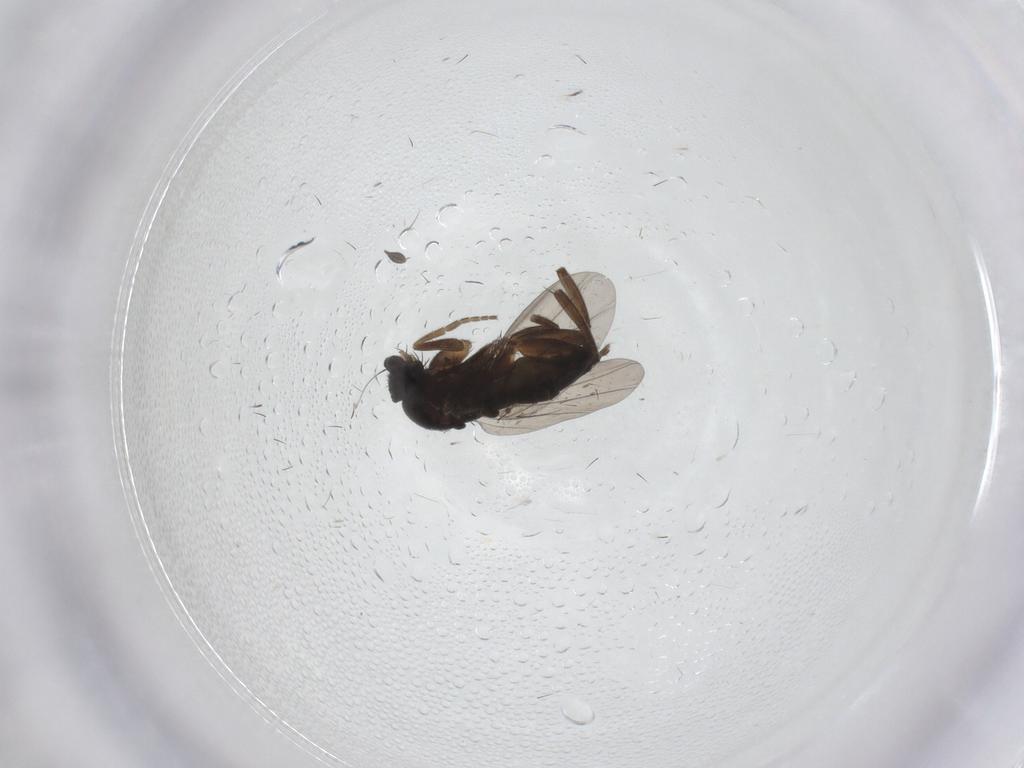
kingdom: Animalia
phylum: Arthropoda
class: Insecta
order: Diptera
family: Phoridae
